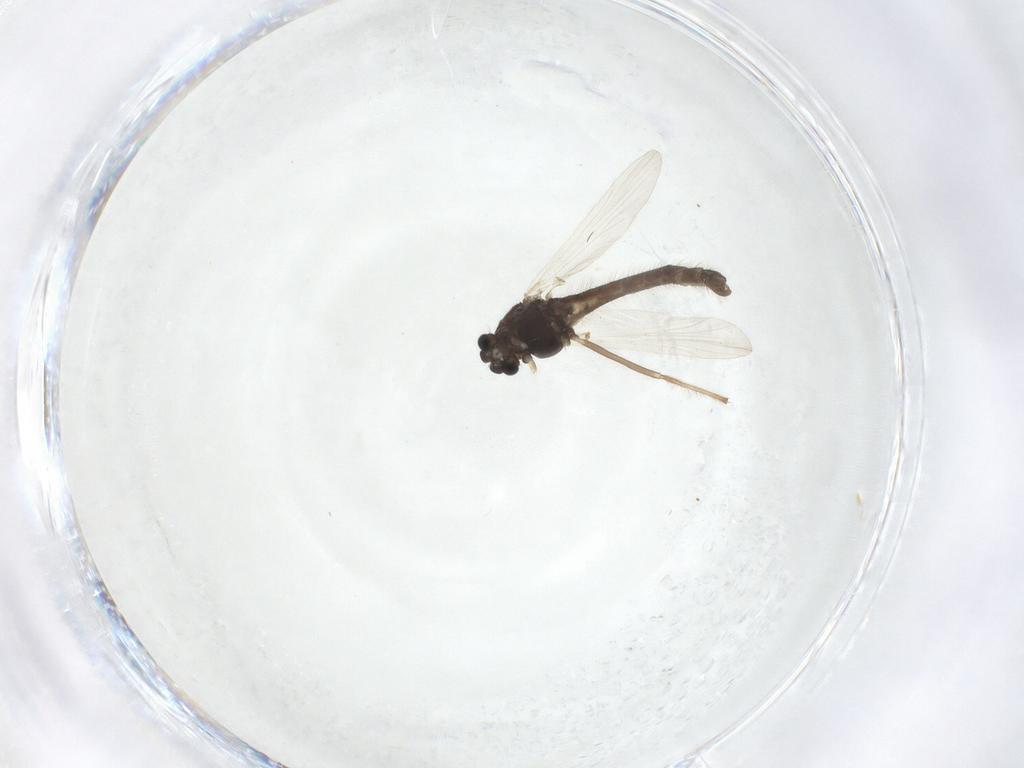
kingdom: Animalia
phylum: Arthropoda
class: Insecta
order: Diptera
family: Chironomidae
